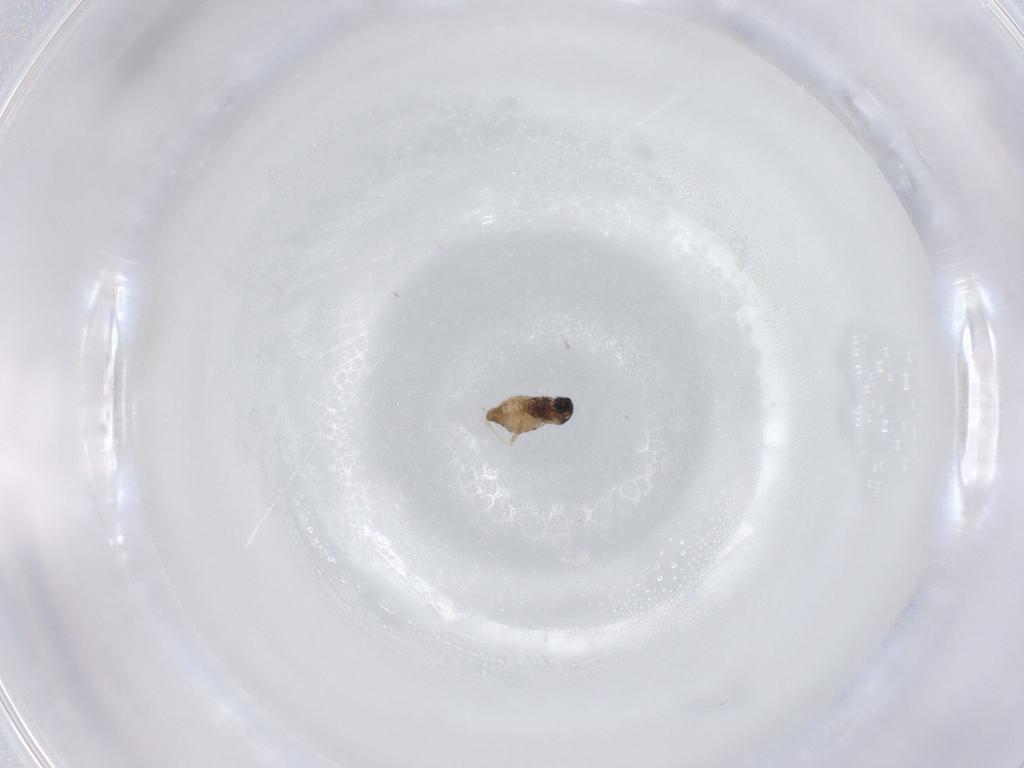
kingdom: Animalia
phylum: Arthropoda
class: Insecta
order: Diptera
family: Cecidomyiidae
